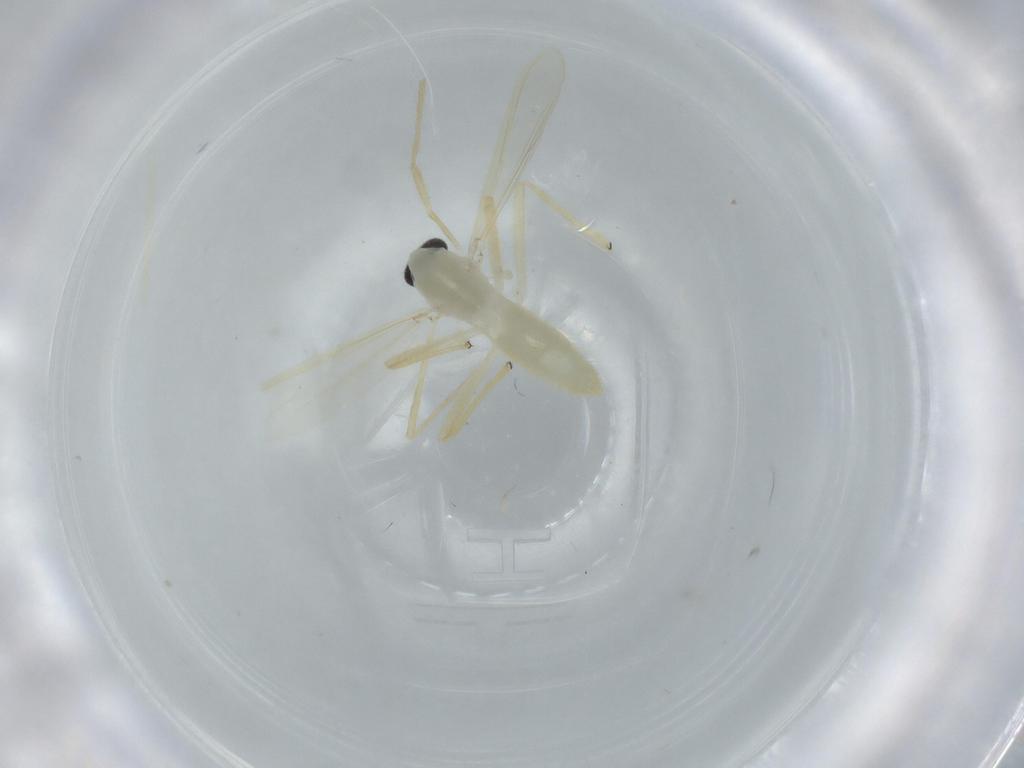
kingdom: Animalia
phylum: Arthropoda
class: Insecta
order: Diptera
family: Chironomidae
